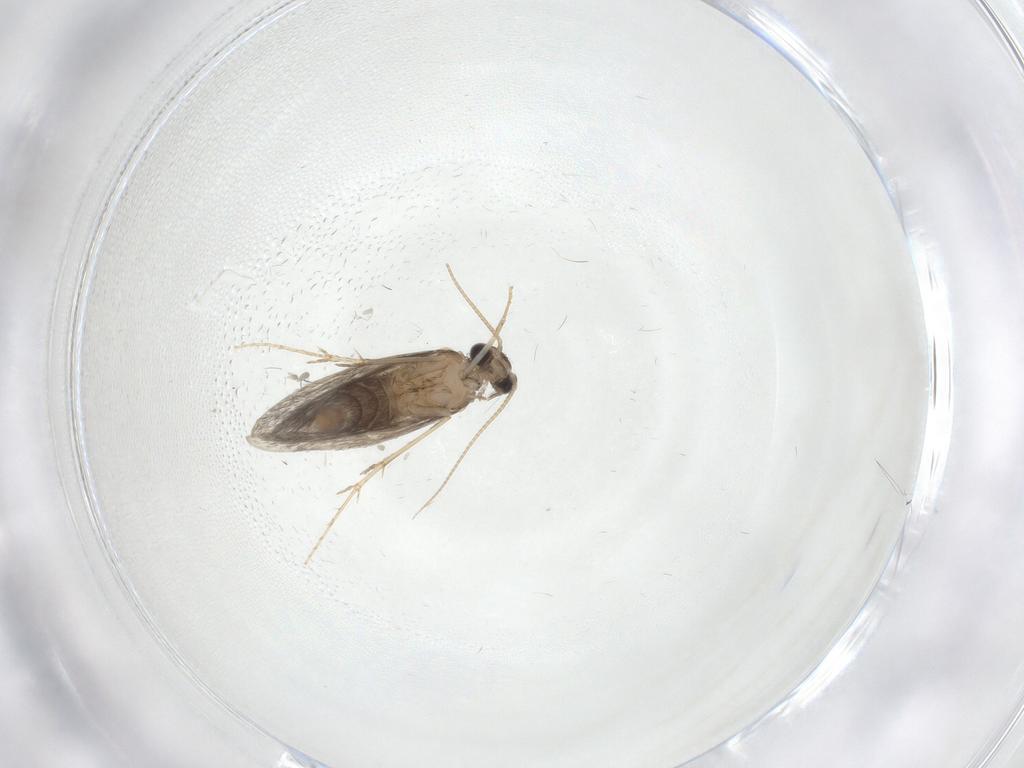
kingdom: Animalia
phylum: Arthropoda
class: Insecta
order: Trichoptera
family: Hydroptilidae
